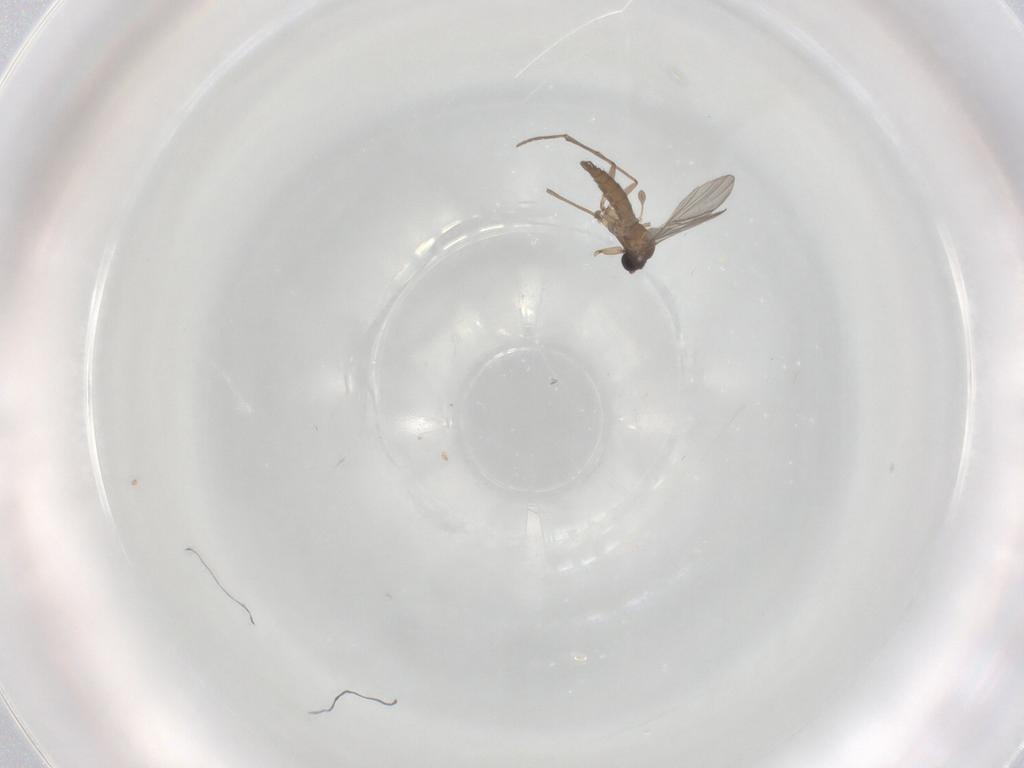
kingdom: Animalia
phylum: Arthropoda
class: Insecta
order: Diptera
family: Sciaridae
